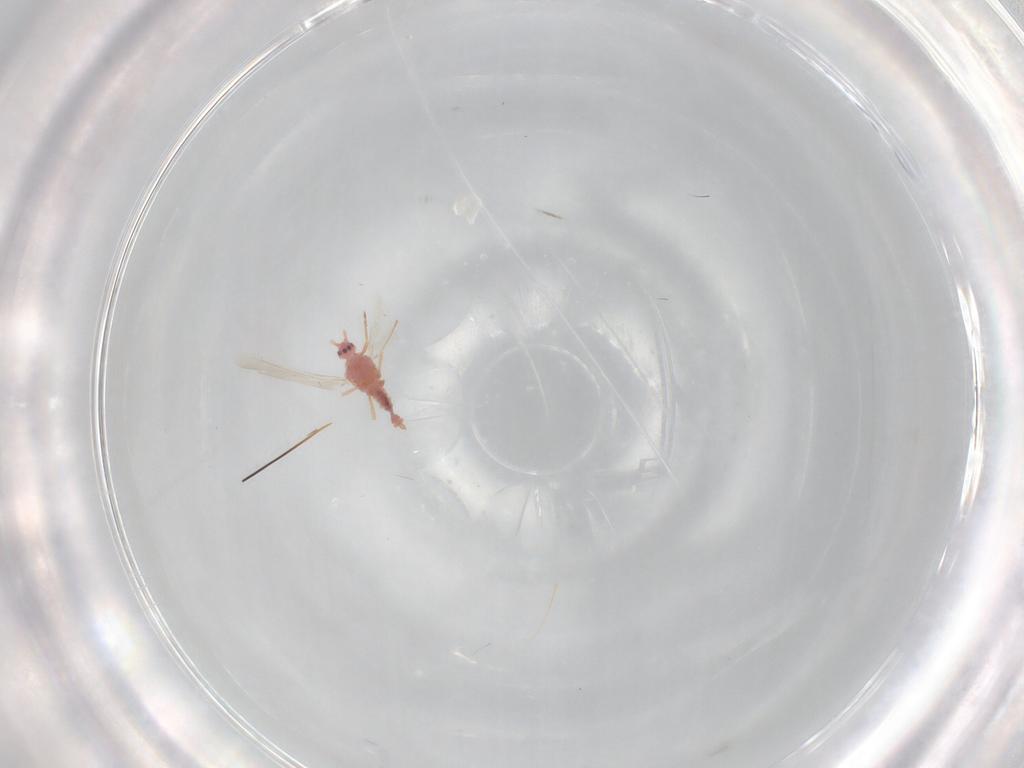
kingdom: Animalia
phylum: Arthropoda
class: Insecta
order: Hemiptera
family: Pseudococcidae
